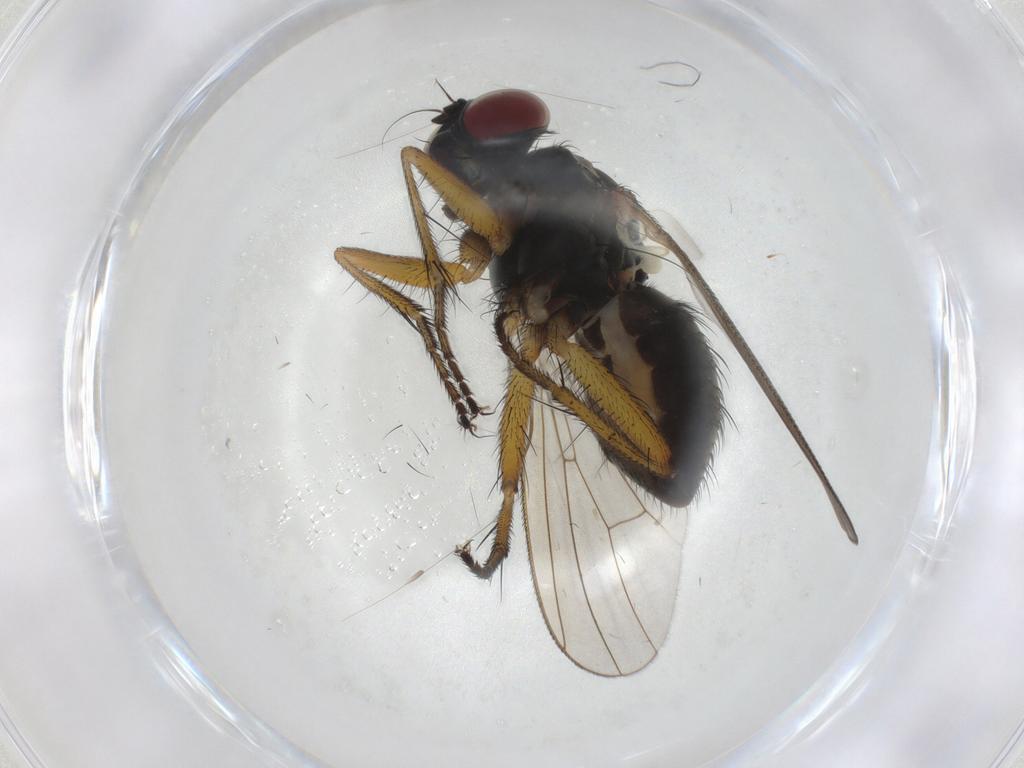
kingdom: Animalia
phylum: Arthropoda
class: Insecta
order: Diptera
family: Muscidae
